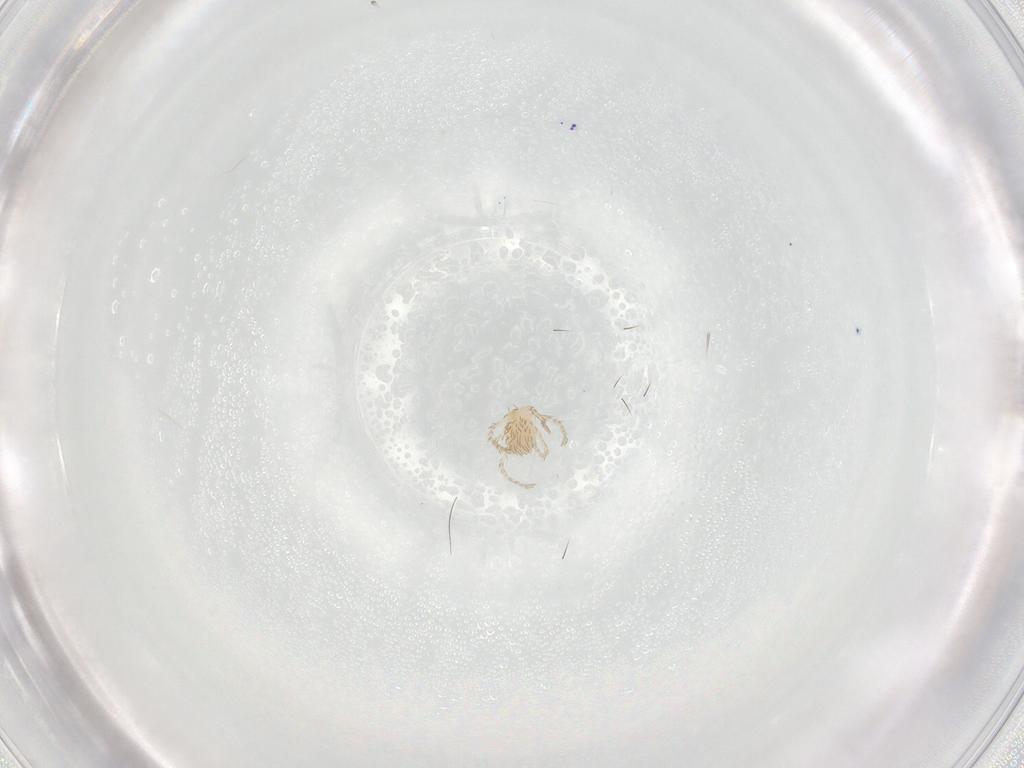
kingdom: Animalia
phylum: Arthropoda
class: Arachnida
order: Trombidiformes
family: Erythraeidae
